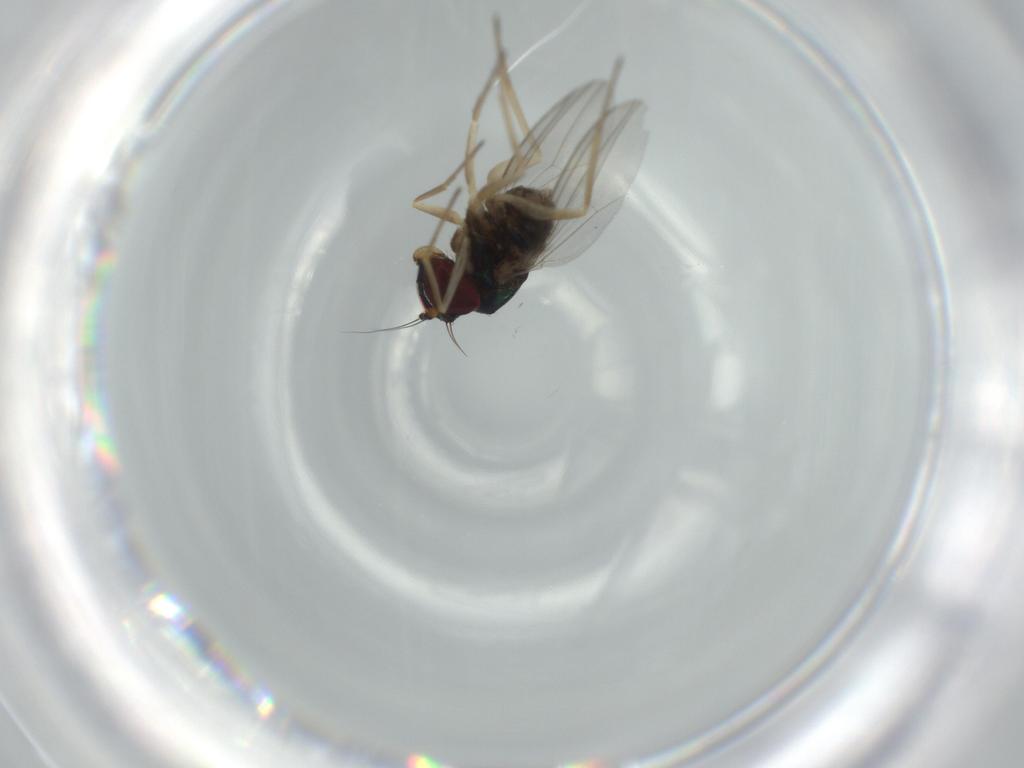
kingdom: Animalia
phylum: Arthropoda
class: Insecta
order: Diptera
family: Dolichopodidae
